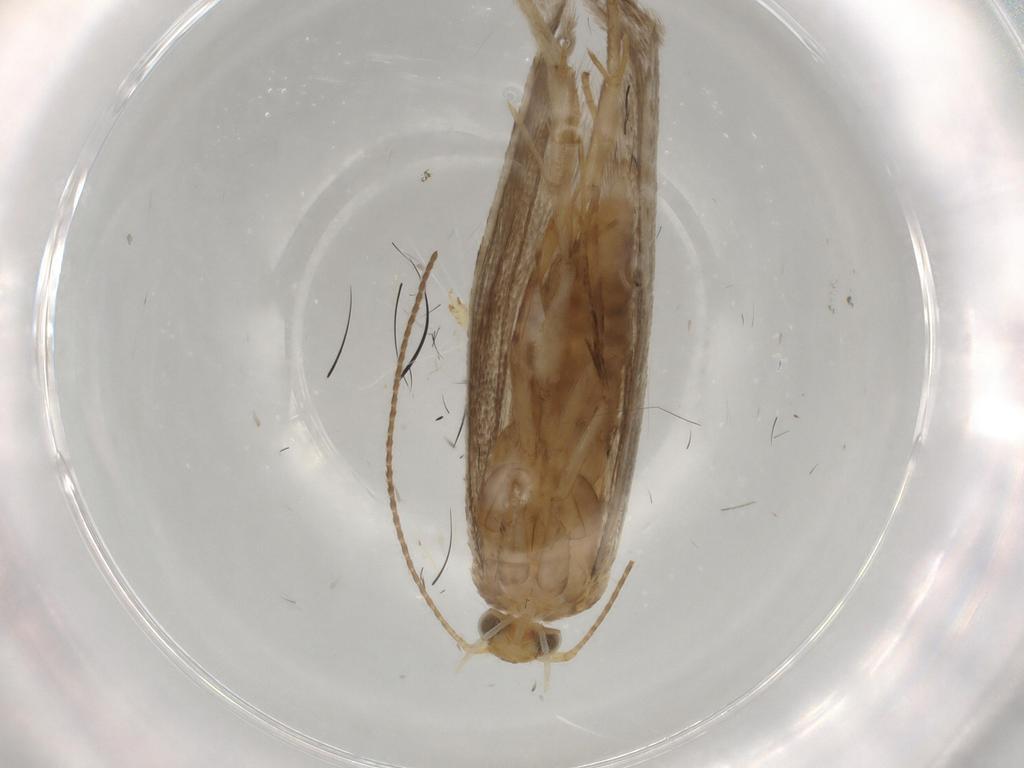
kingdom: Animalia
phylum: Arthropoda
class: Insecta
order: Lepidoptera
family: Argyresthiidae
